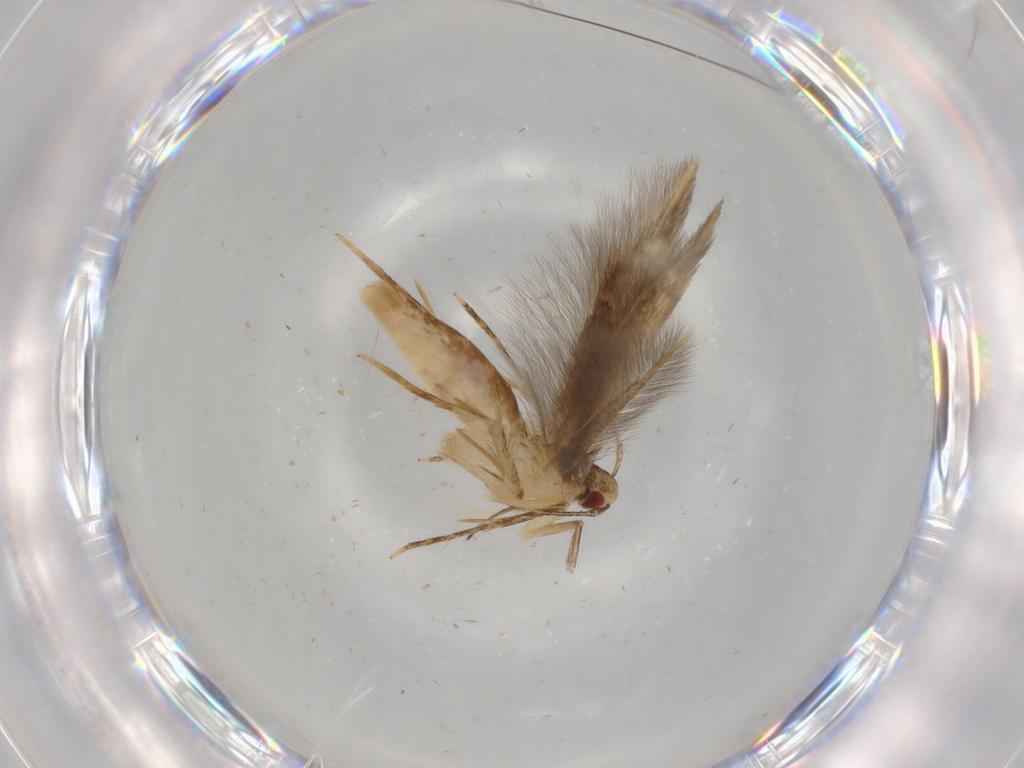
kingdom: Animalia
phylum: Arthropoda
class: Insecta
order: Lepidoptera
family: Gelechiidae
